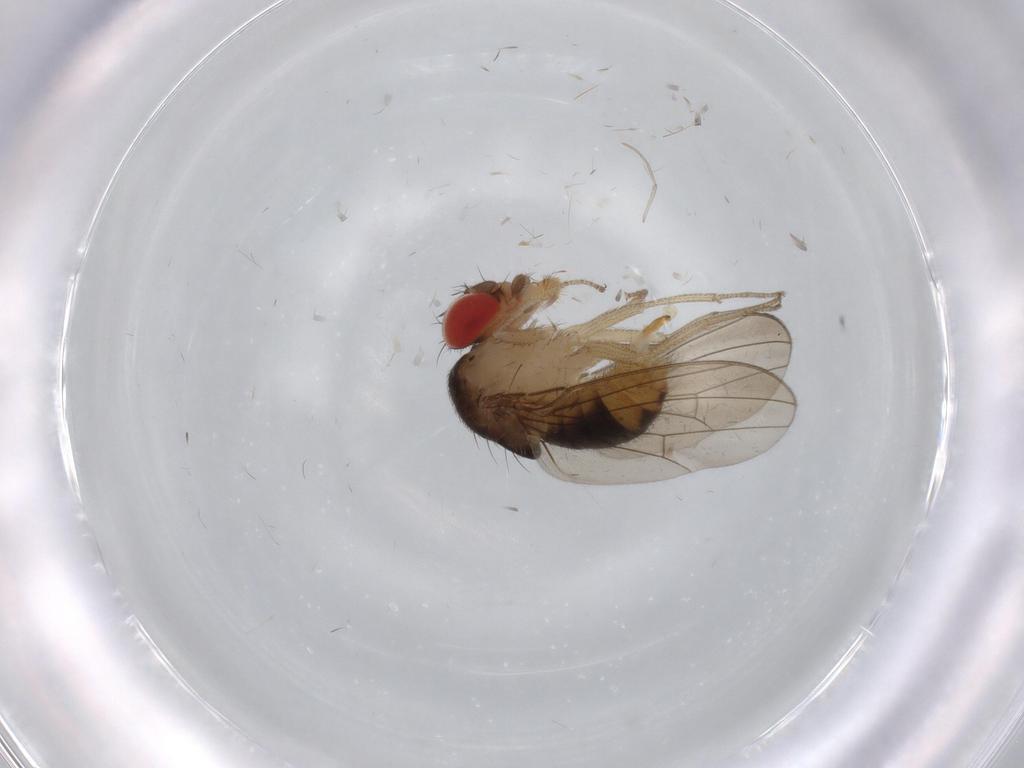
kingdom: Animalia
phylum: Arthropoda
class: Insecta
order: Diptera
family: Drosophilidae
